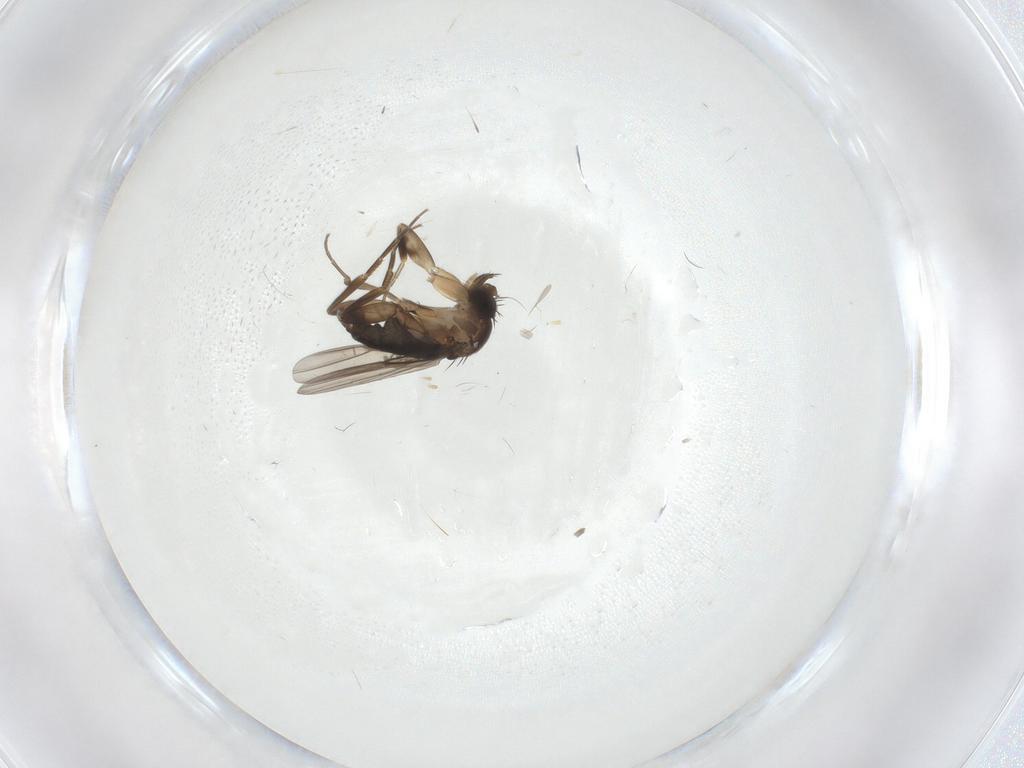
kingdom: Animalia
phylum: Arthropoda
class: Insecta
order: Diptera
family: Phoridae
